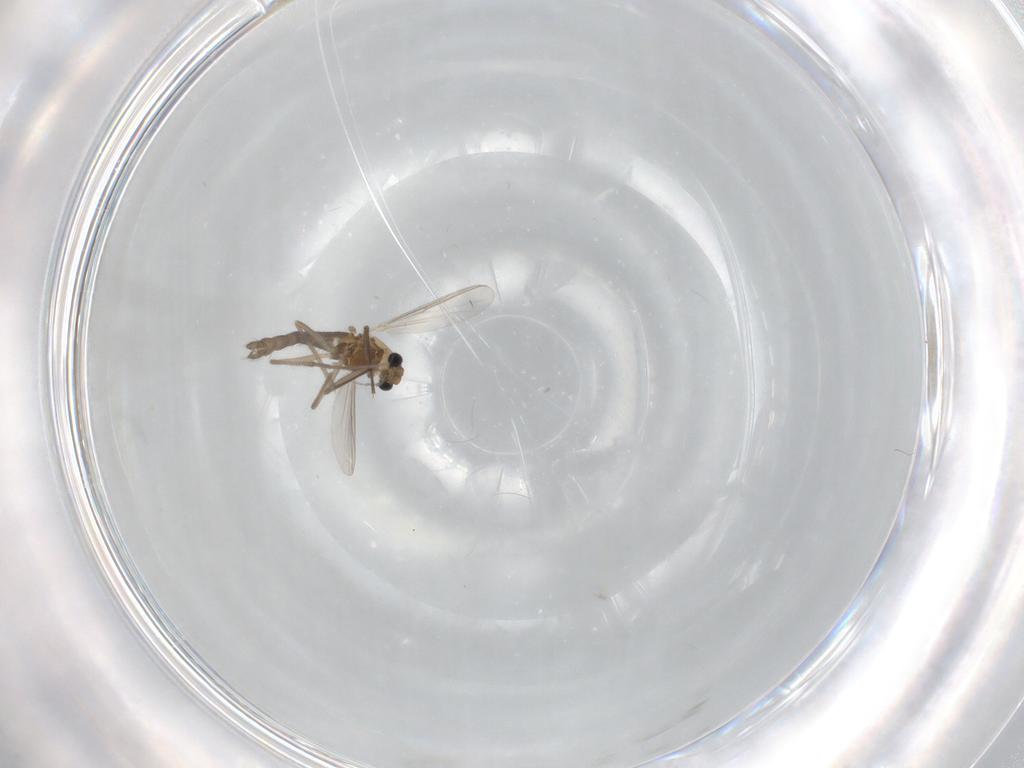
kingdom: Animalia
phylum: Arthropoda
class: Insecta
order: Diptera
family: Chironomidae
